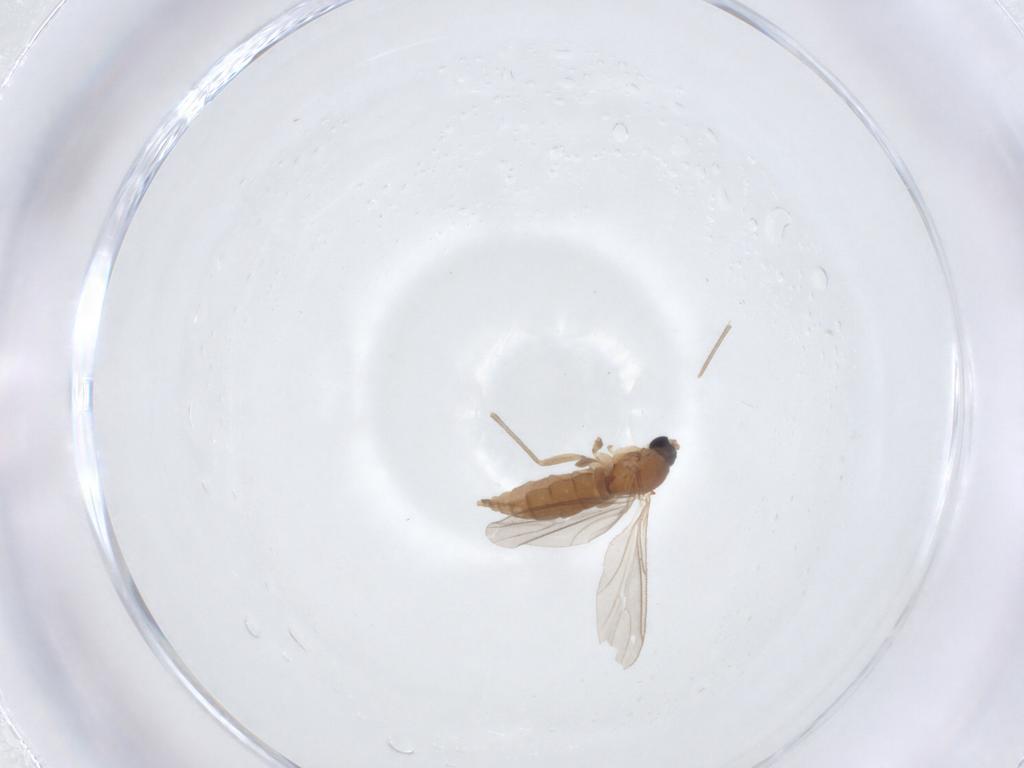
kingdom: Animalia
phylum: Arthropoda
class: Insecta
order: Diptera
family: Sciaridae
